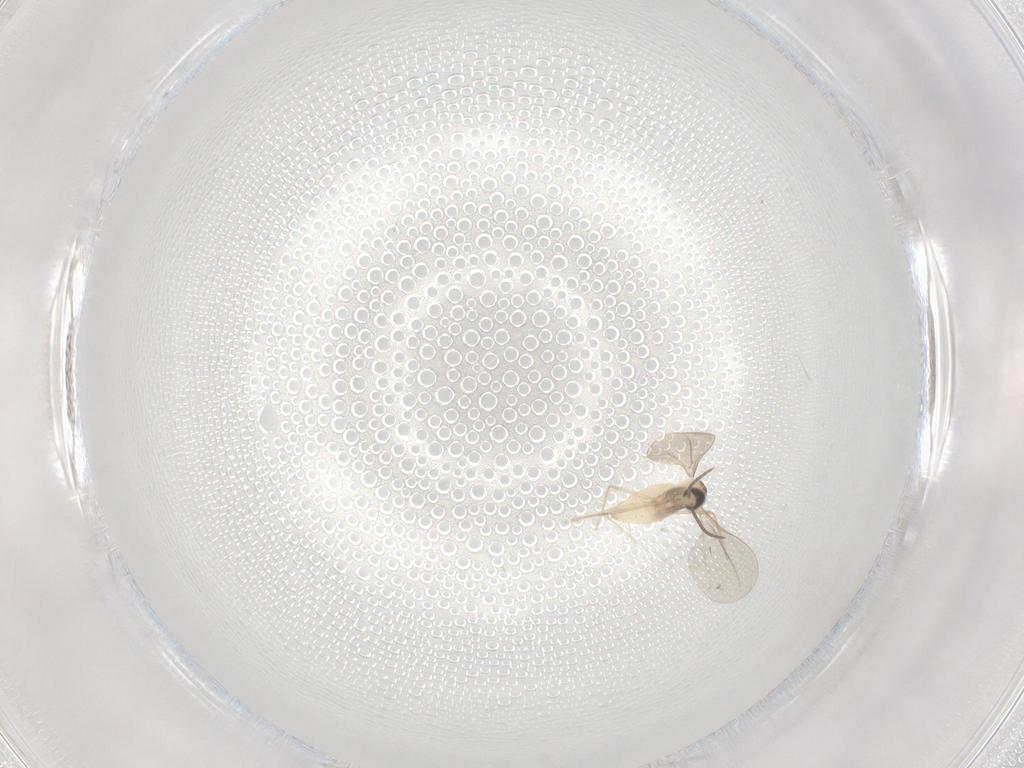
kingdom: Animalia
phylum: Arthropoda
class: Insecta
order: Diptera
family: Cecidomyiidae
